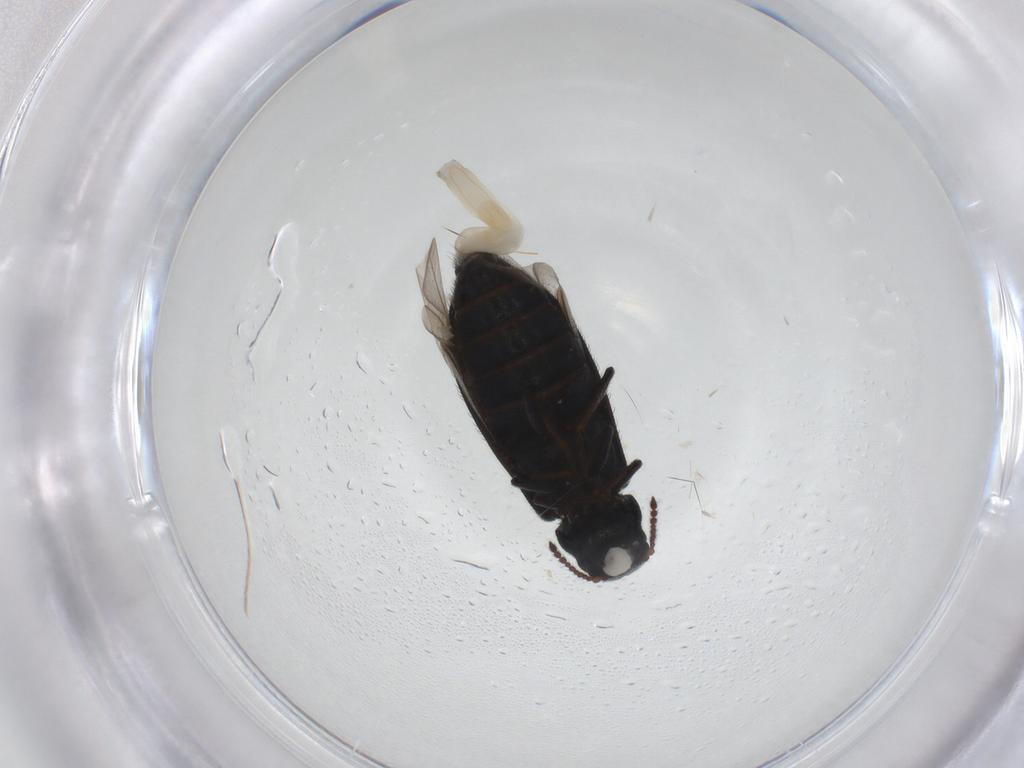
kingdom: Animalia
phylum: Arthropoda
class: Insecta
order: Coleoptera
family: Melyridae
